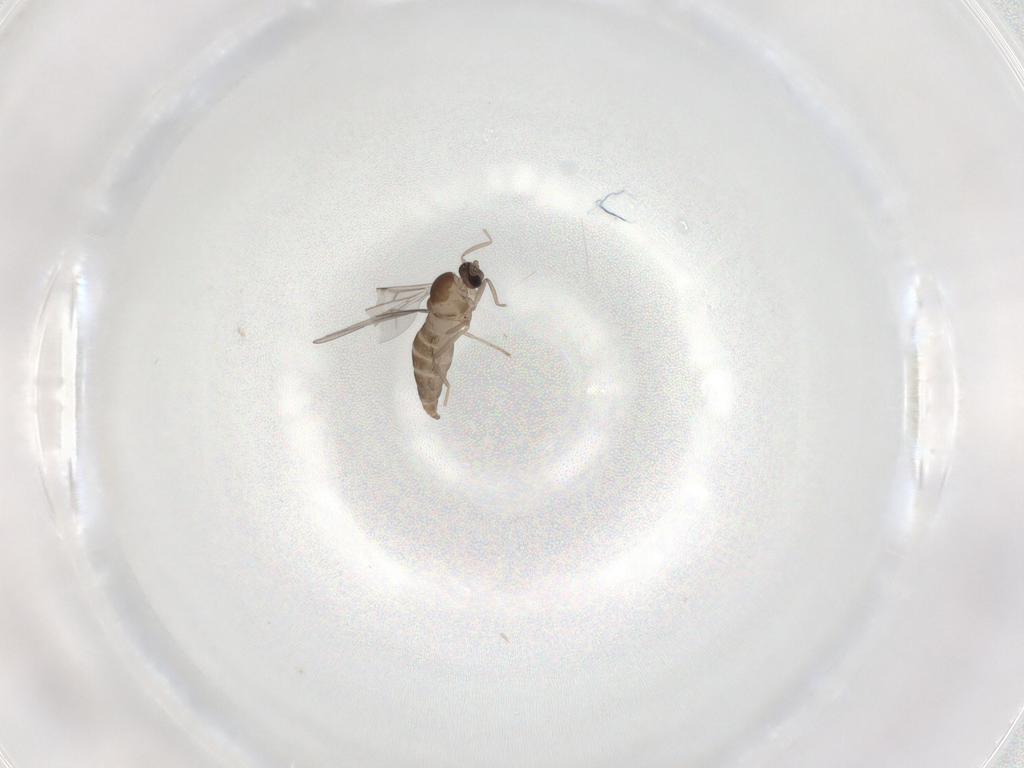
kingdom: Animalia
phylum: Arthropoda
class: Insecta
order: Diptera
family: Cecidomyiidae
